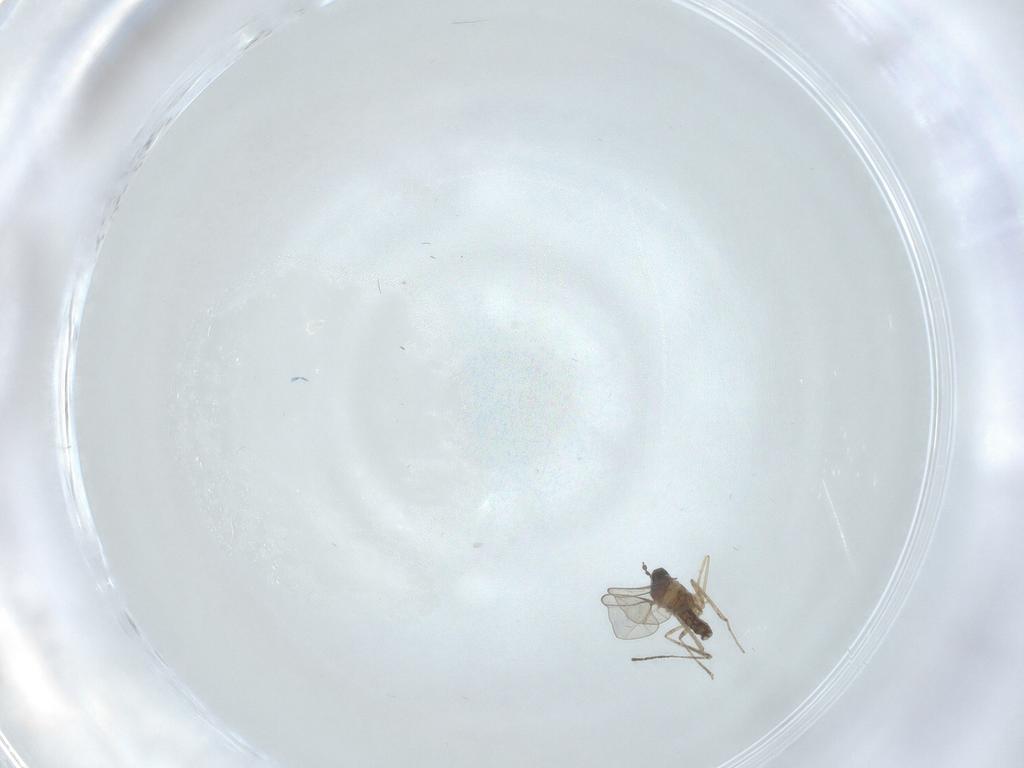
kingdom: Animalia
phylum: Arthropoda
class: Insecta
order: Diptera
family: Cecidomyiidae
